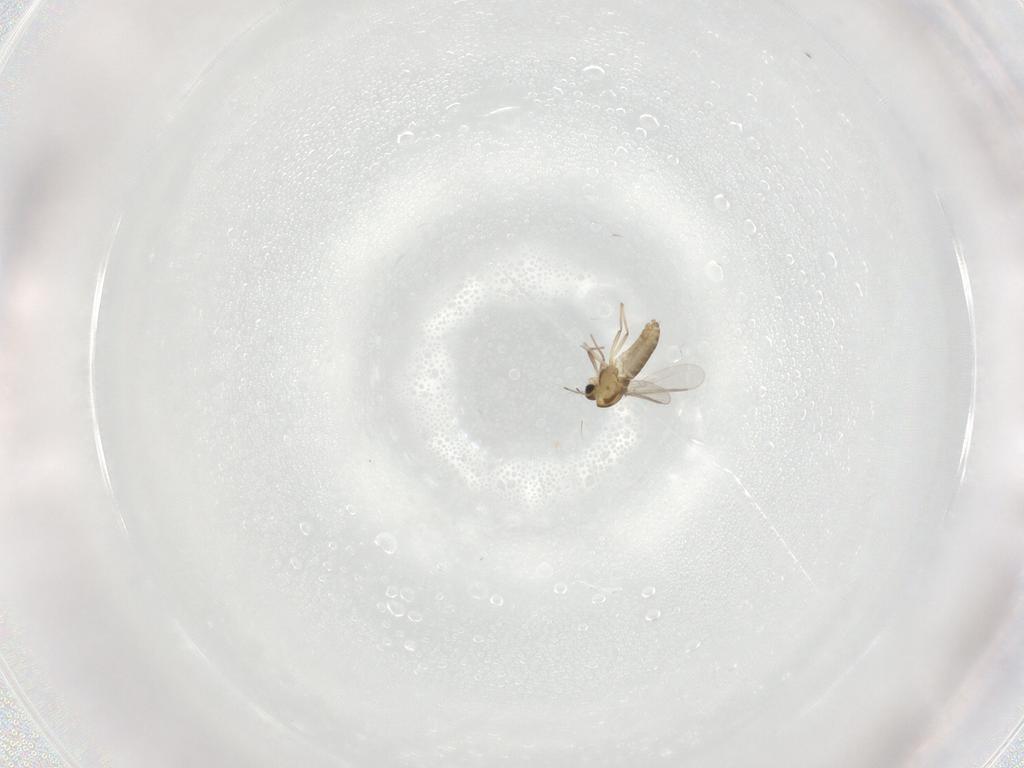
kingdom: Animalia
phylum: Arthropoda
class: Insecta
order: Diptera
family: Chironomidae
